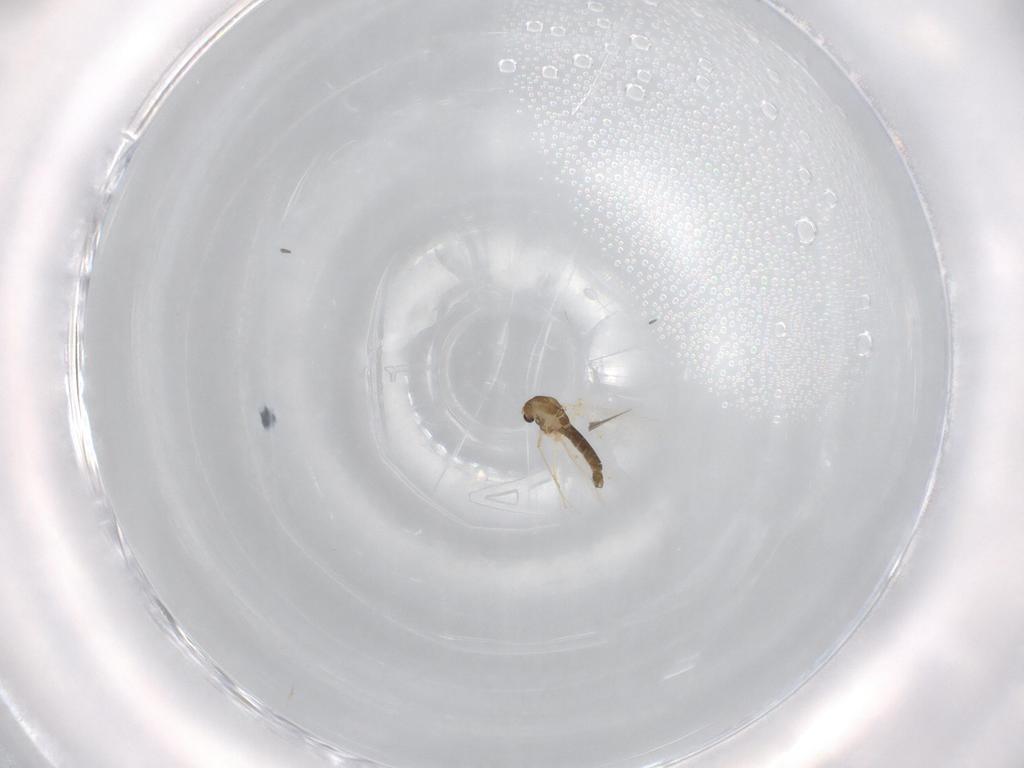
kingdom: Animalia
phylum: Arthropoda
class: Insecta
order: Diptera
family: Chironomidae
